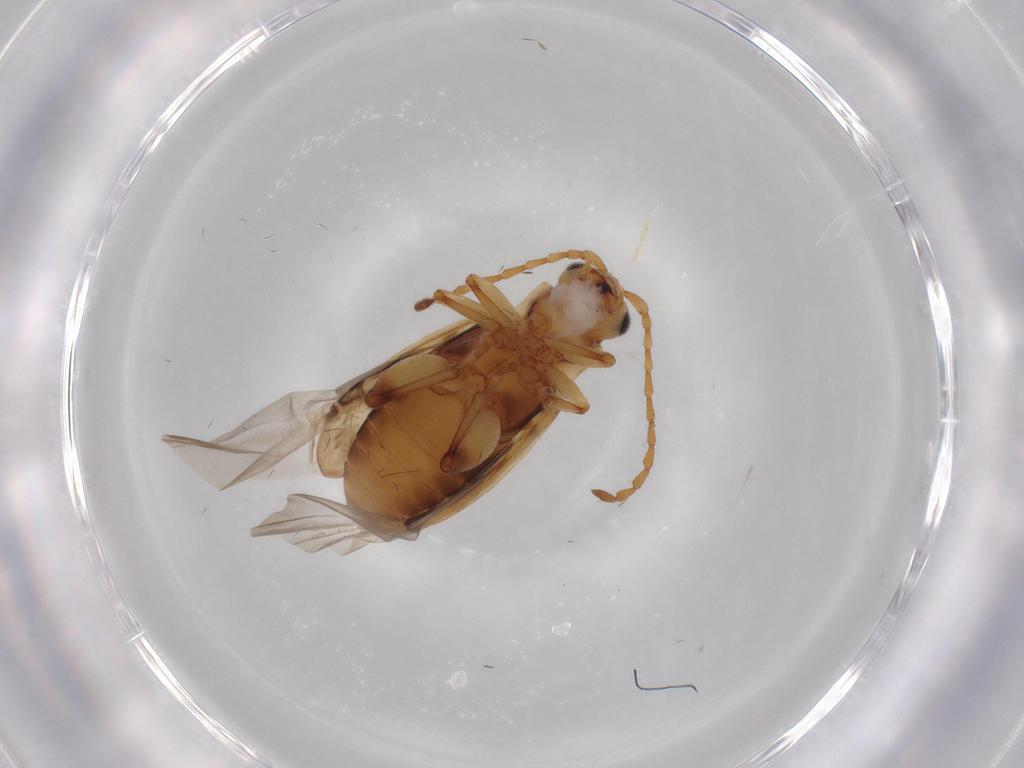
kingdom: Animalia
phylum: Arthropoda
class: Insecta
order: Coleoptera
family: Chrysomelidae
